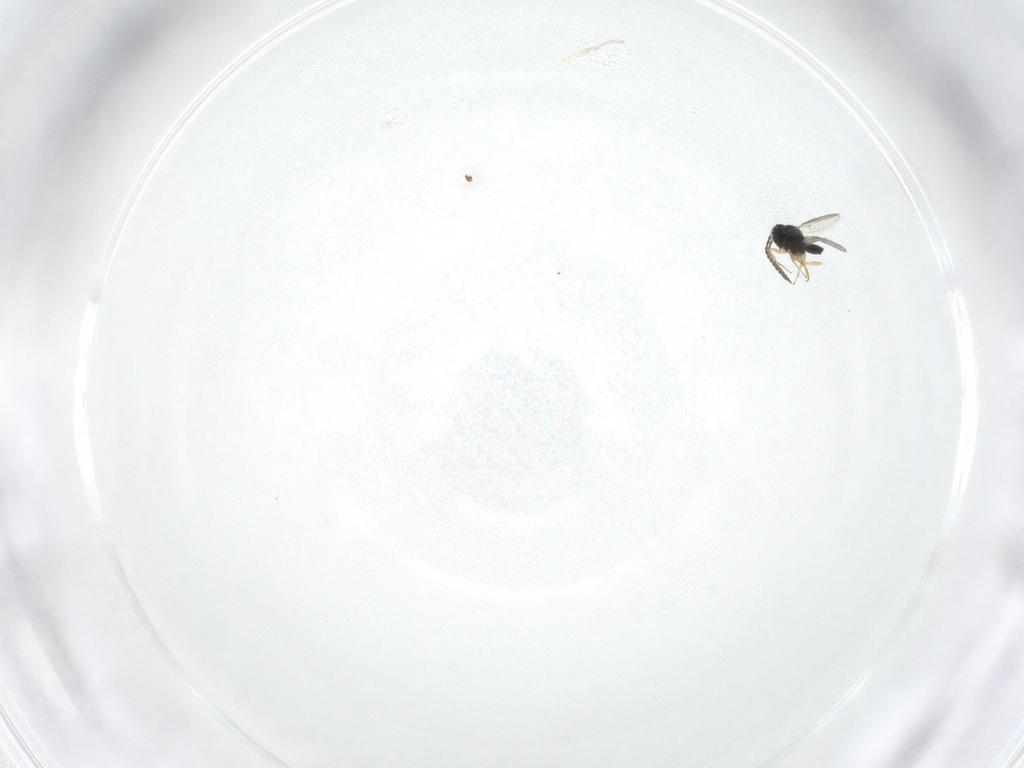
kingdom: Animalia
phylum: Arthropoda
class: Insecta
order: Hymenoptera
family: Scelionidae
